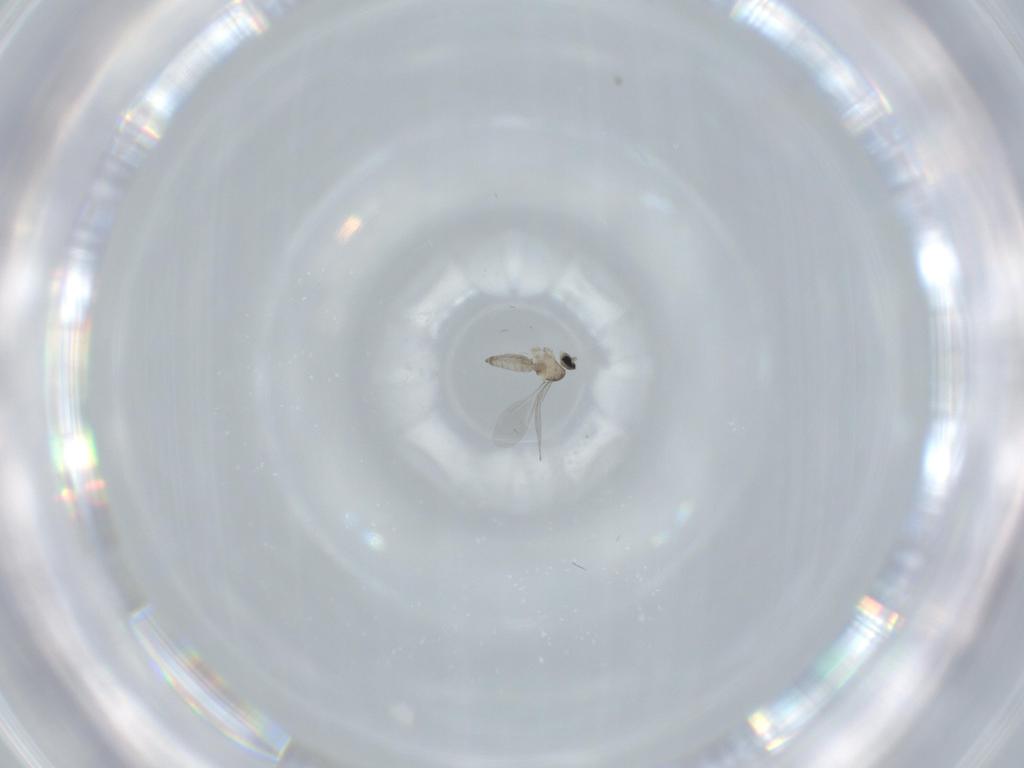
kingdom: Animalia
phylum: Arthropoda
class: Insecta
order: Diptera
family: Cecidomyiidae
